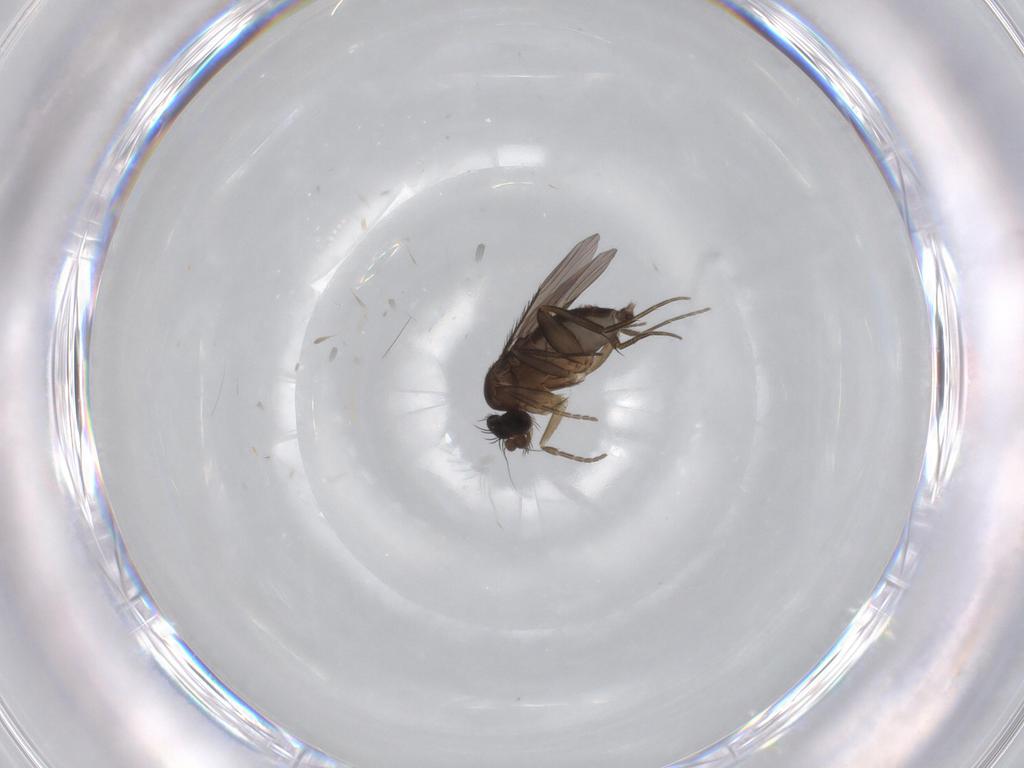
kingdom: Animalia
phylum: Arthropoda
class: Insecta
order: Diptera
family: Phoridae
